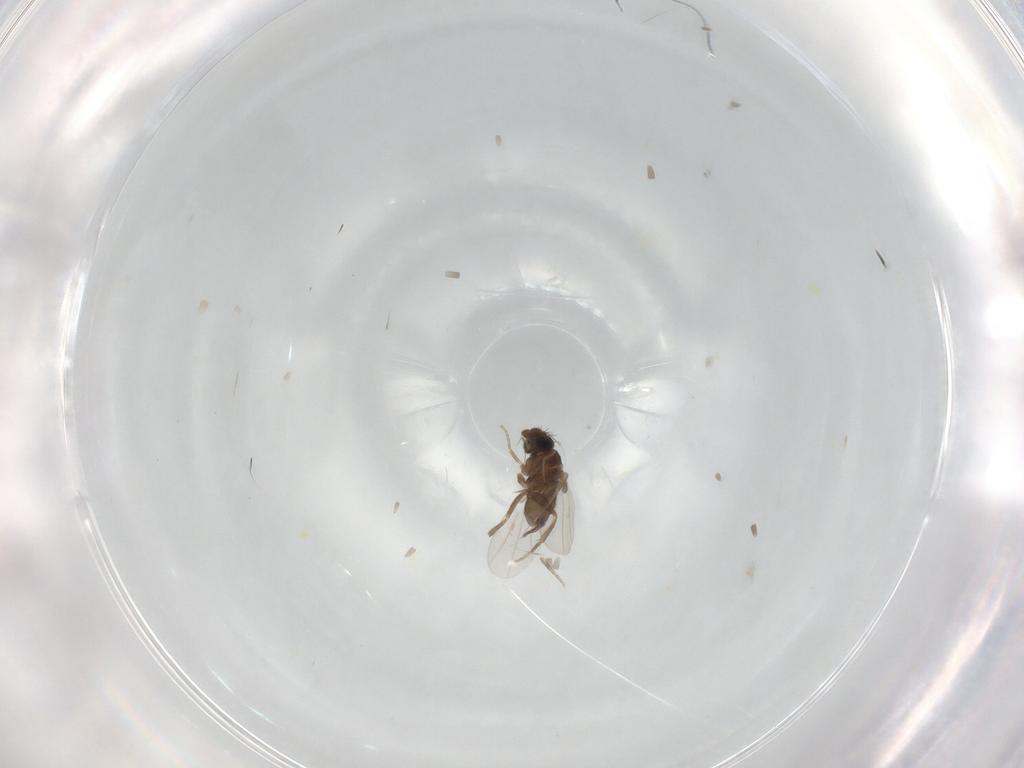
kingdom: Animalia
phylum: Arthropoda
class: Insecta
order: Diptera
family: Phoridae
